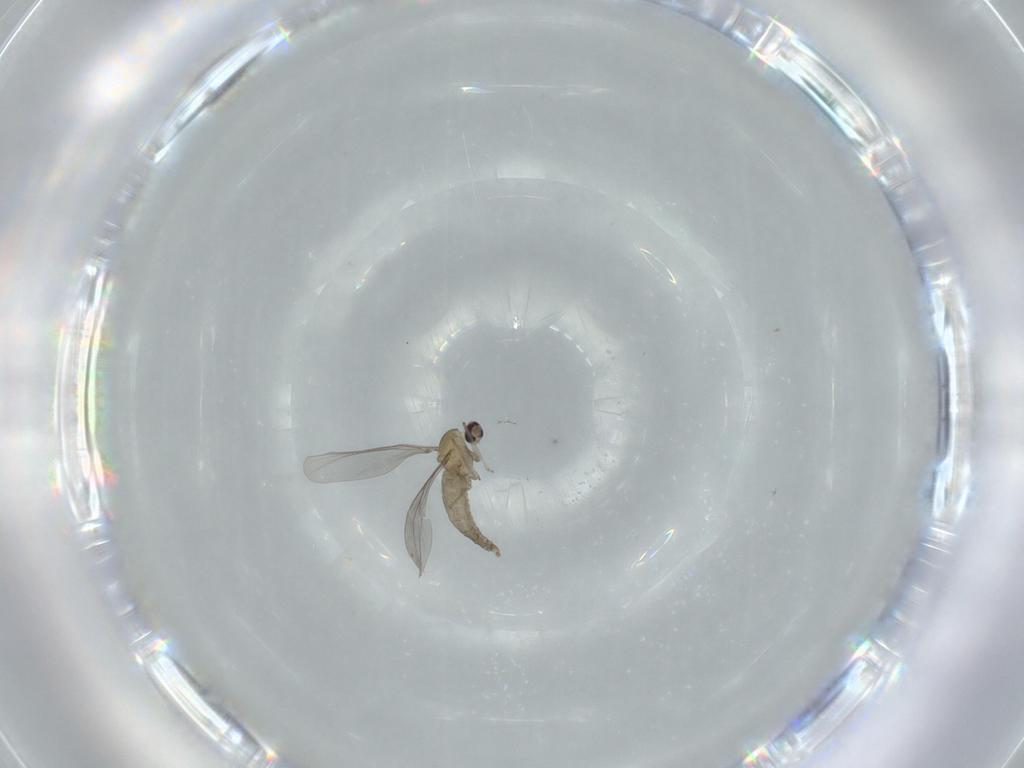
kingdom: Animalia
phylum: Arthropoda
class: Insecta
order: Diptera
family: Cecidomyiidae
